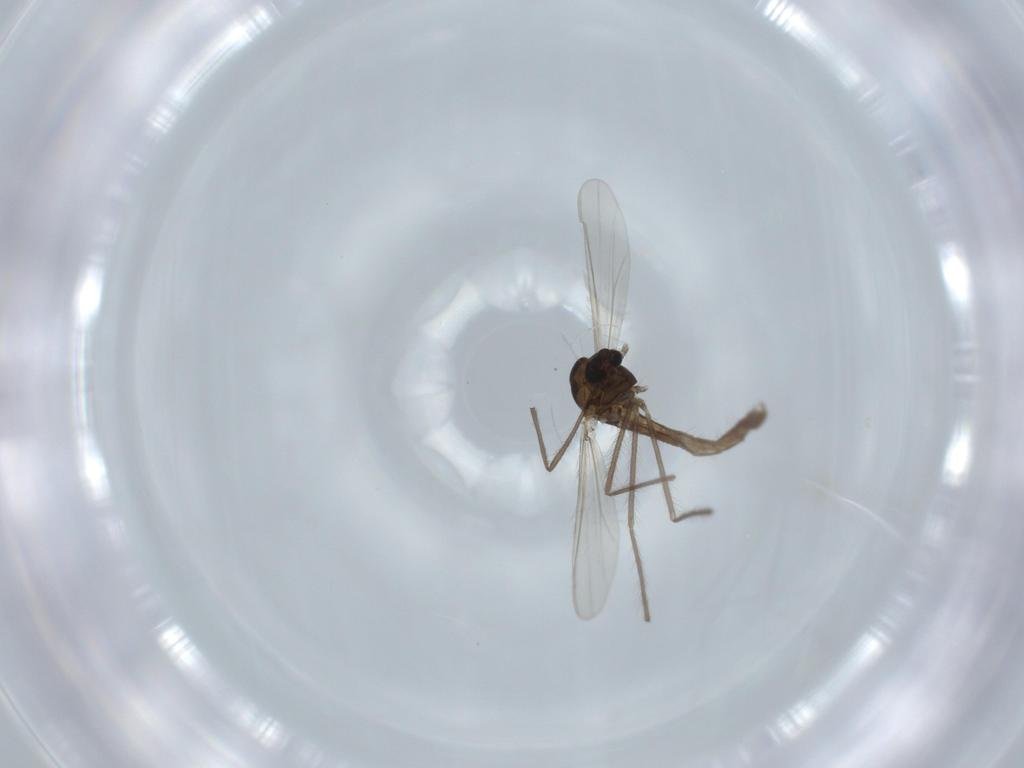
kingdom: Animalia
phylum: Arthropoda
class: Insecta
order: Diptera
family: Chironomidae
